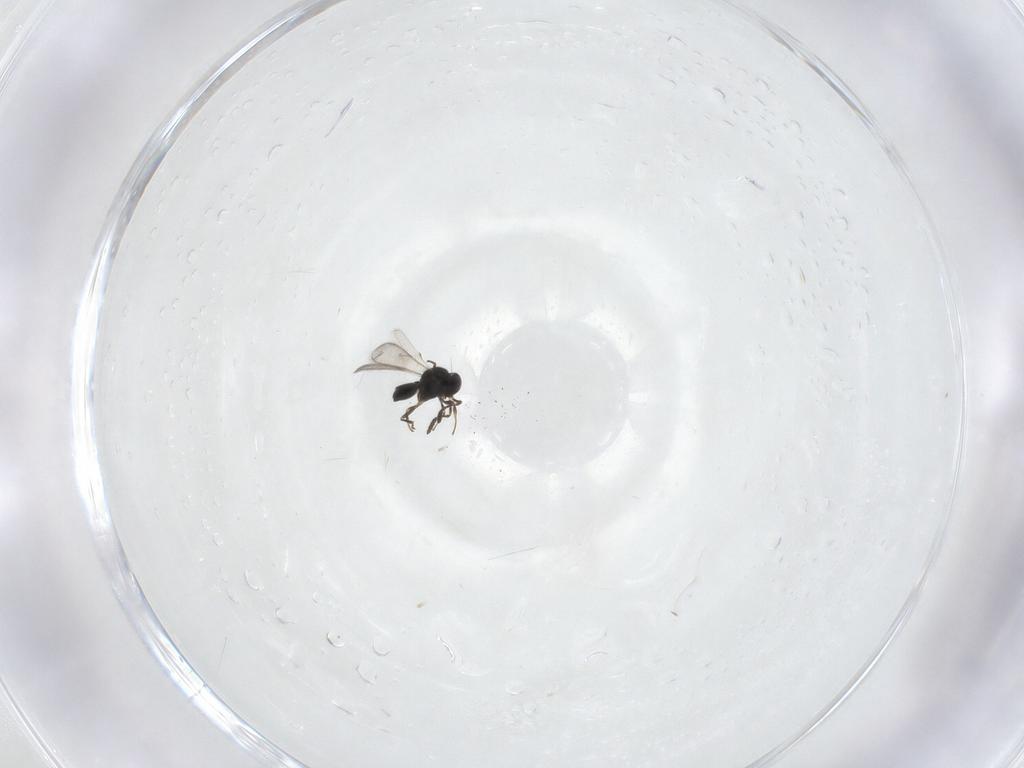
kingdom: Animalia
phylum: Arthropoda
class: Insecta
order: Hymenoptera
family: Scelionidae
